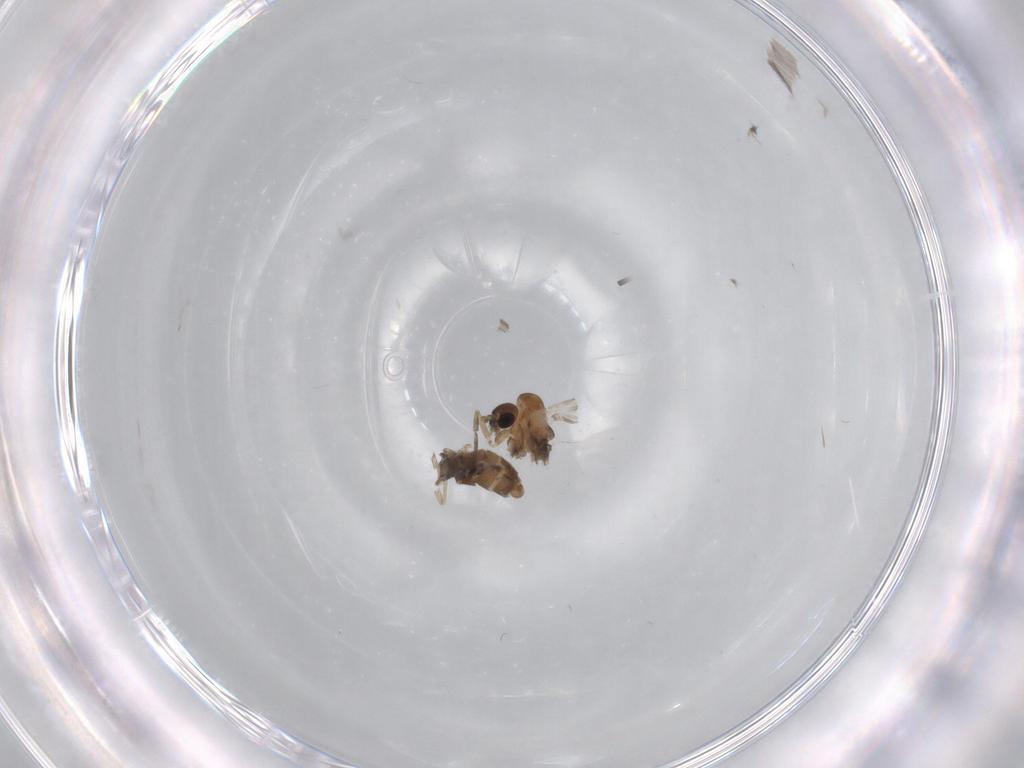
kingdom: Animalia
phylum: Arthropoda
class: Insecta
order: Diptera
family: Psychodidae
